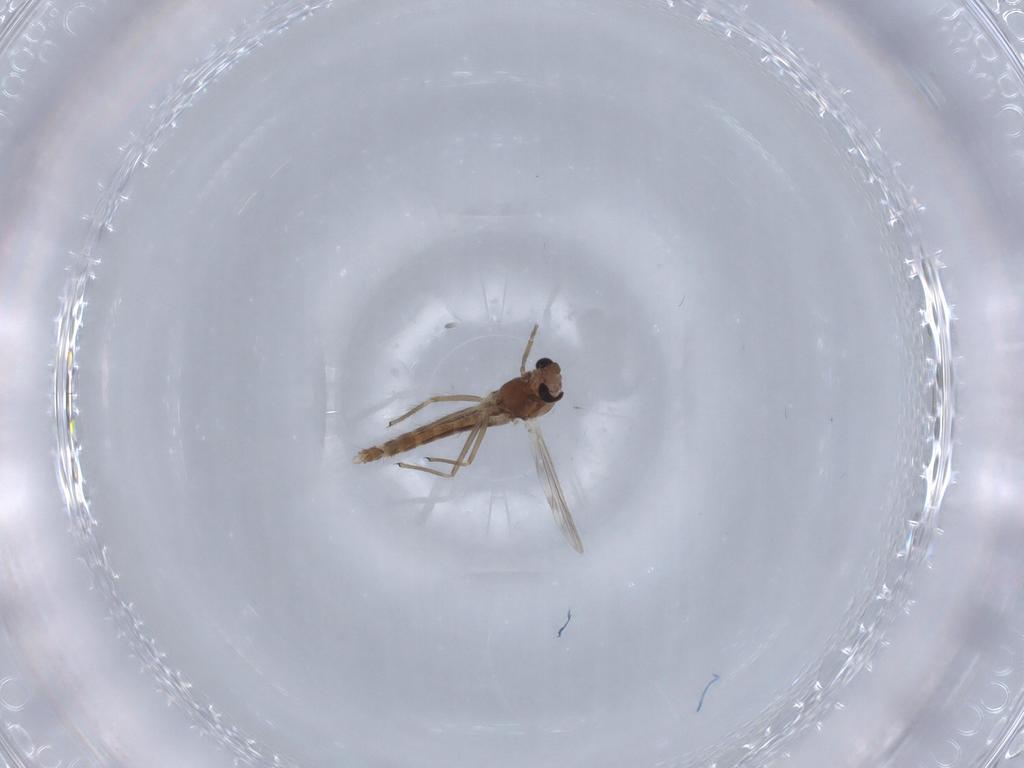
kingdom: Animalia
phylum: Arthropoda
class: Insecta
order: Diptera
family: Chironomidae
